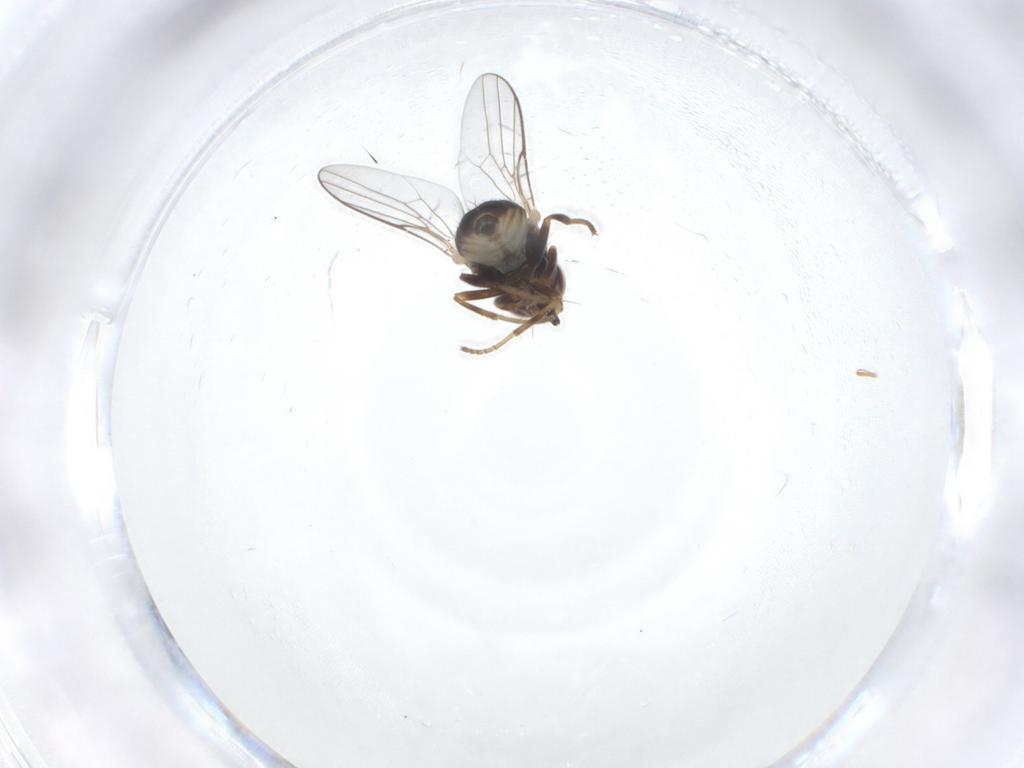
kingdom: Animalia
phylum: Arthropoda
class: Insecta
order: Diptera
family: Chloropidae
